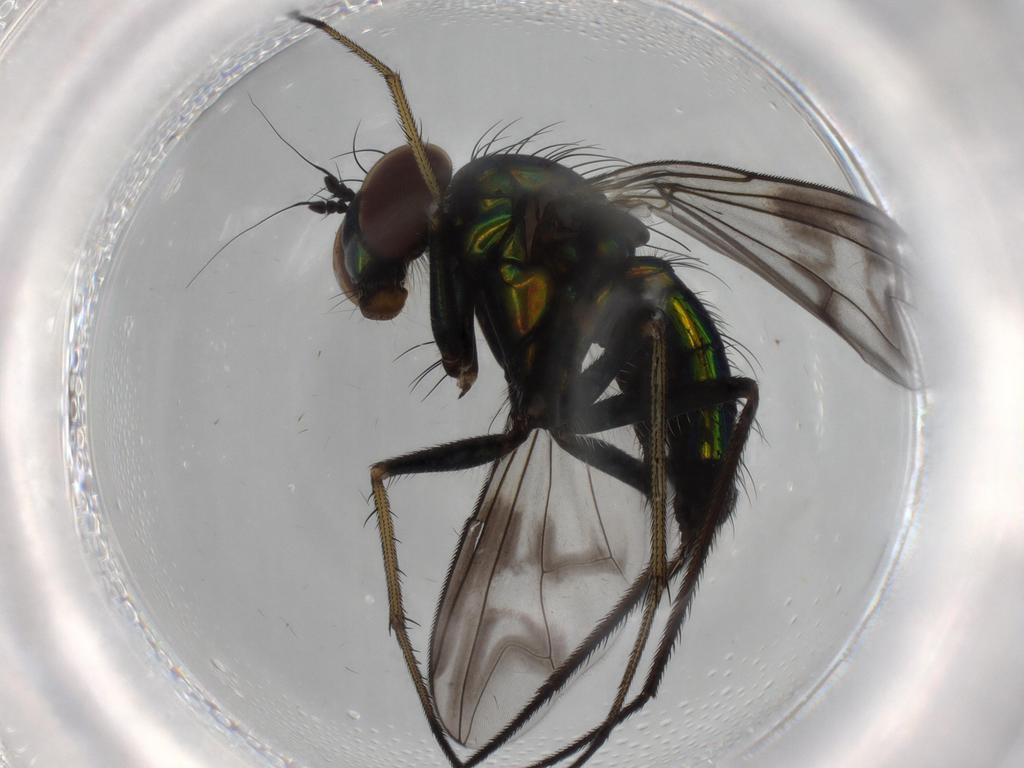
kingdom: Animalia
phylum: Arthropoda
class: Insecta
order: Diptera
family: Dolichopodidae
